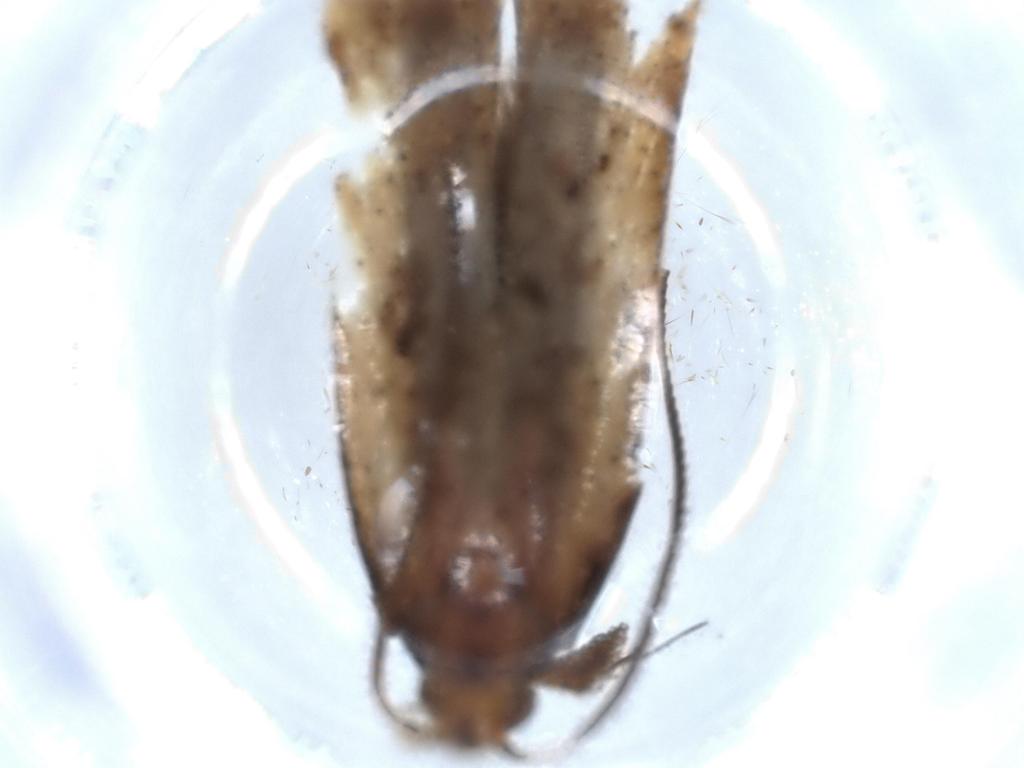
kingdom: Animalia
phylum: Arthropoda
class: Insecta
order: Lepidoptera
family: Tineidae
